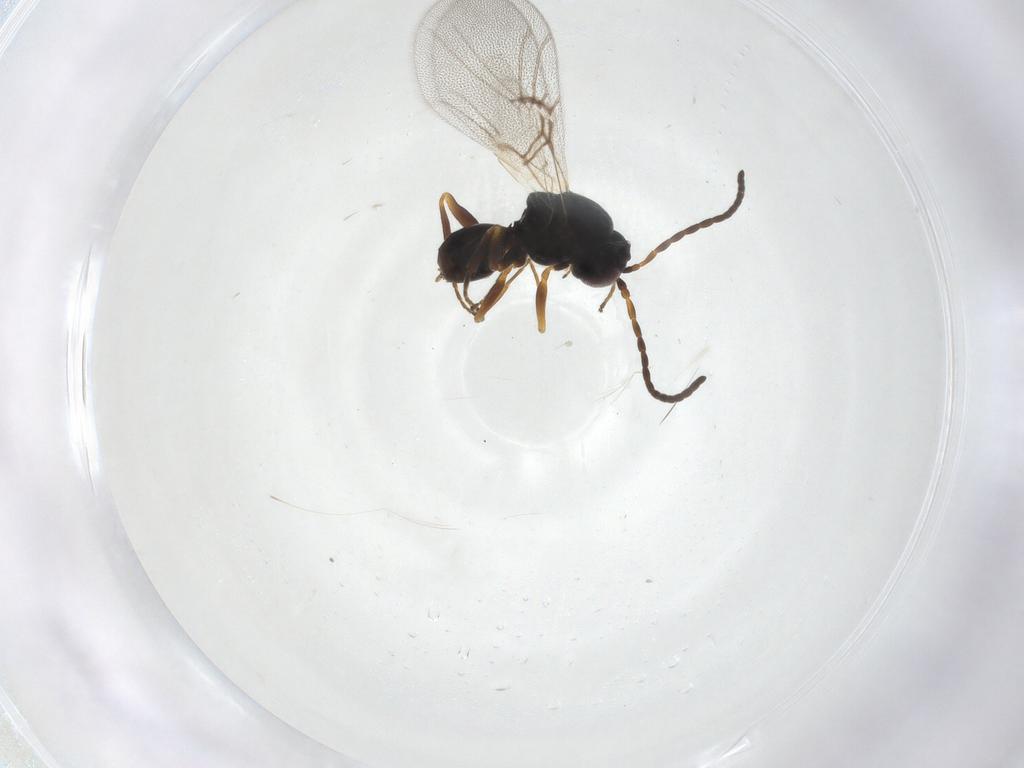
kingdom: Animalia
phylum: Arthropoda
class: Insecta
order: Hymenoptera
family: Cynipidae
